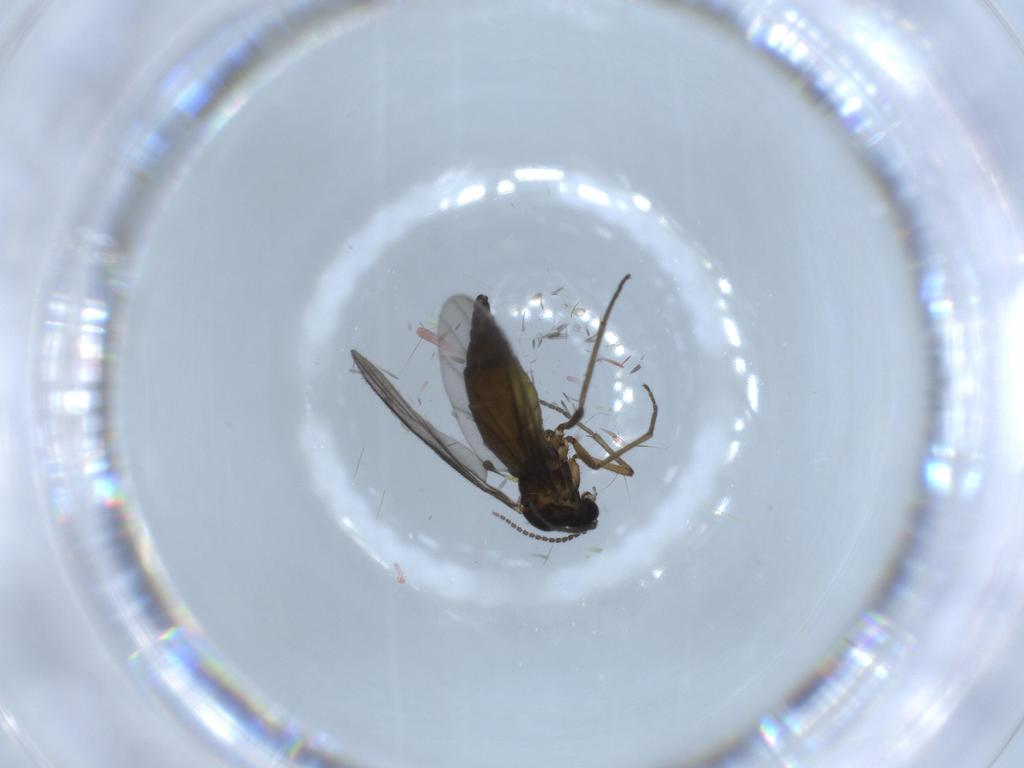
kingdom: Animalia
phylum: Arthropoda
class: Insecta
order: Diptera
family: Sciaridae
